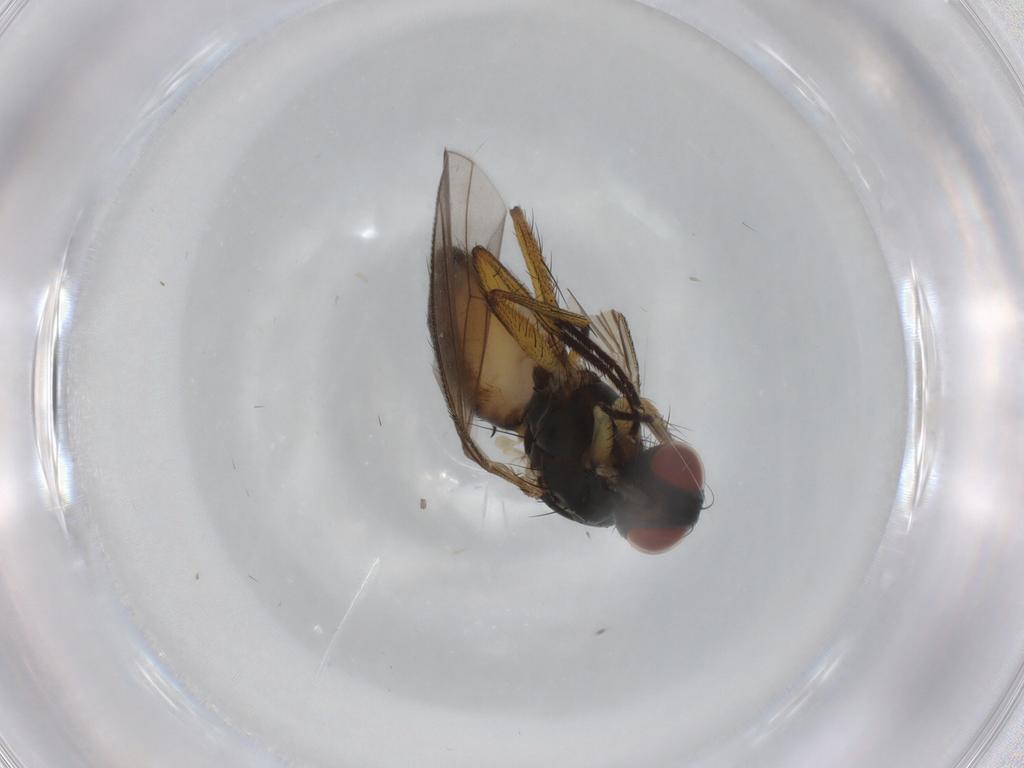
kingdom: Animalia
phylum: Arthropoda
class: Insecta
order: Diptera
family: Muscidae
